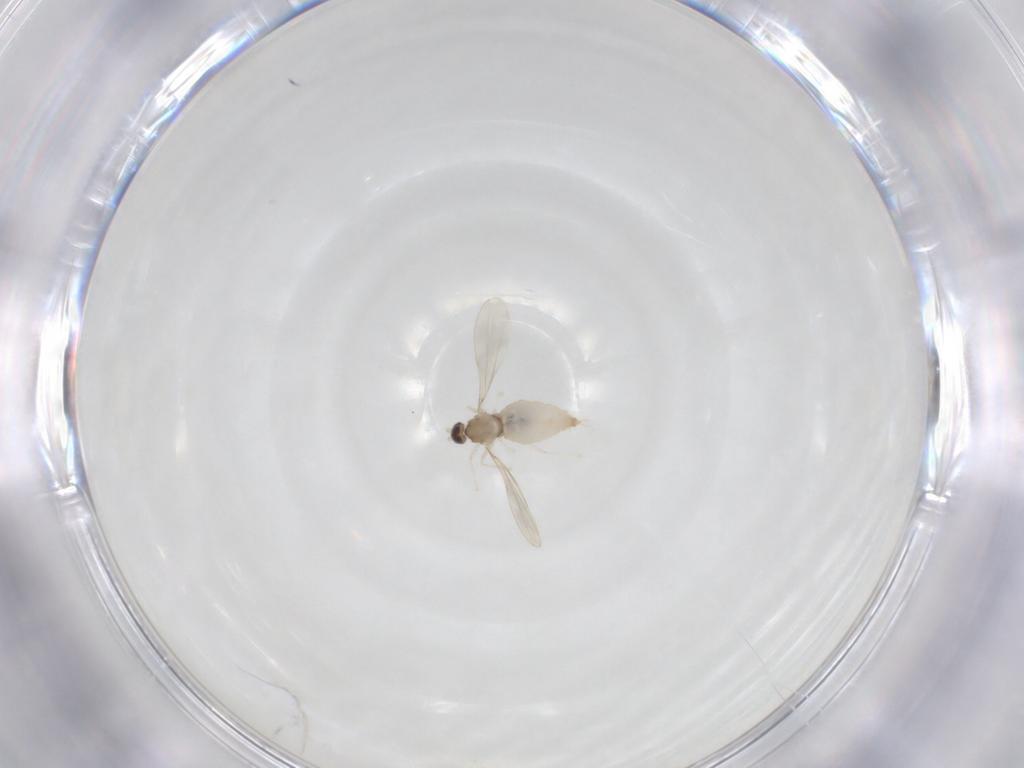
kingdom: Animalia
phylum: Arthropoda
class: Insecta
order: Diptera
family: Cecidomyiidae
